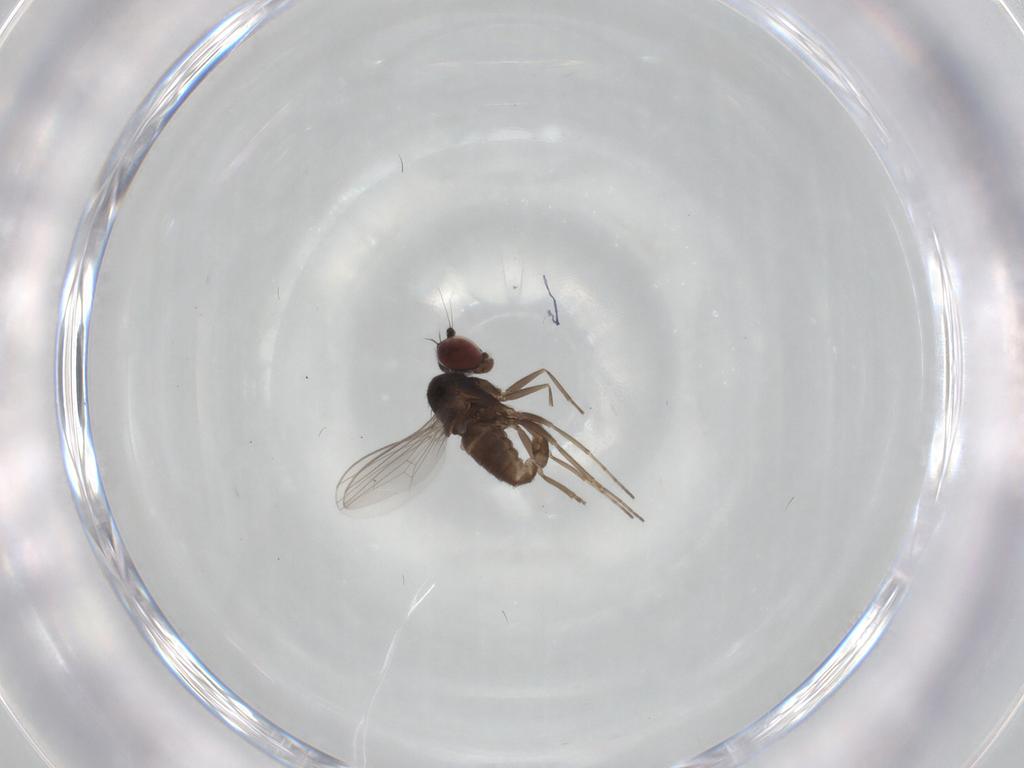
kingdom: Animalia
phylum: Arthropoda
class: Insecta
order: Diptera
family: Dolichopodidae
